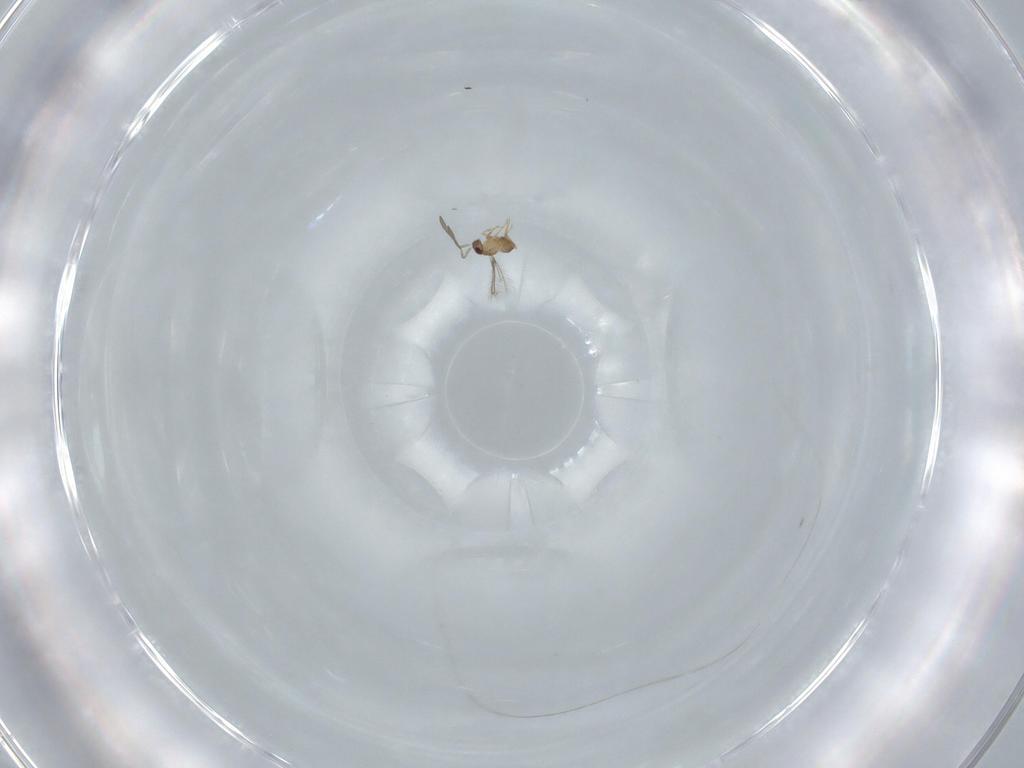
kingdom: Animalia
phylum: Arthropoda
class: Insecta
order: Hymenoptera
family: Mymaridae
